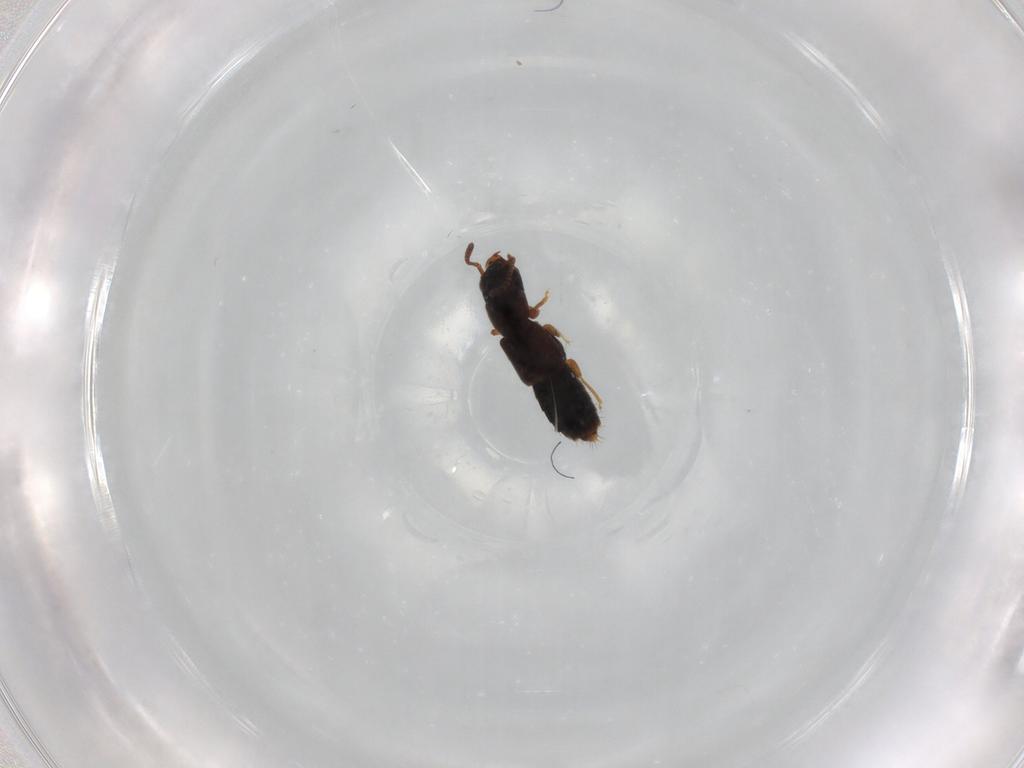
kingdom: Animalia
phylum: Arthropoda
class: Insecta
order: Coleoptera
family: Staphylinidae
